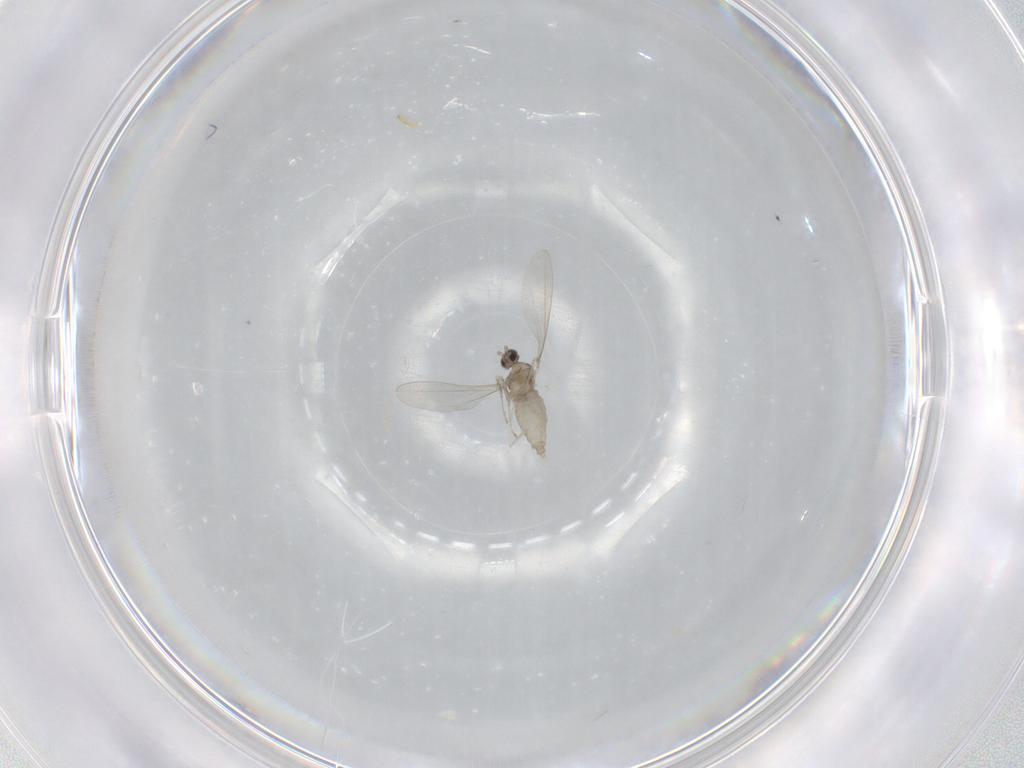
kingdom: Animalia
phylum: Arthropoda
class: Insecta
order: Diptera
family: Cecidomyiidae
